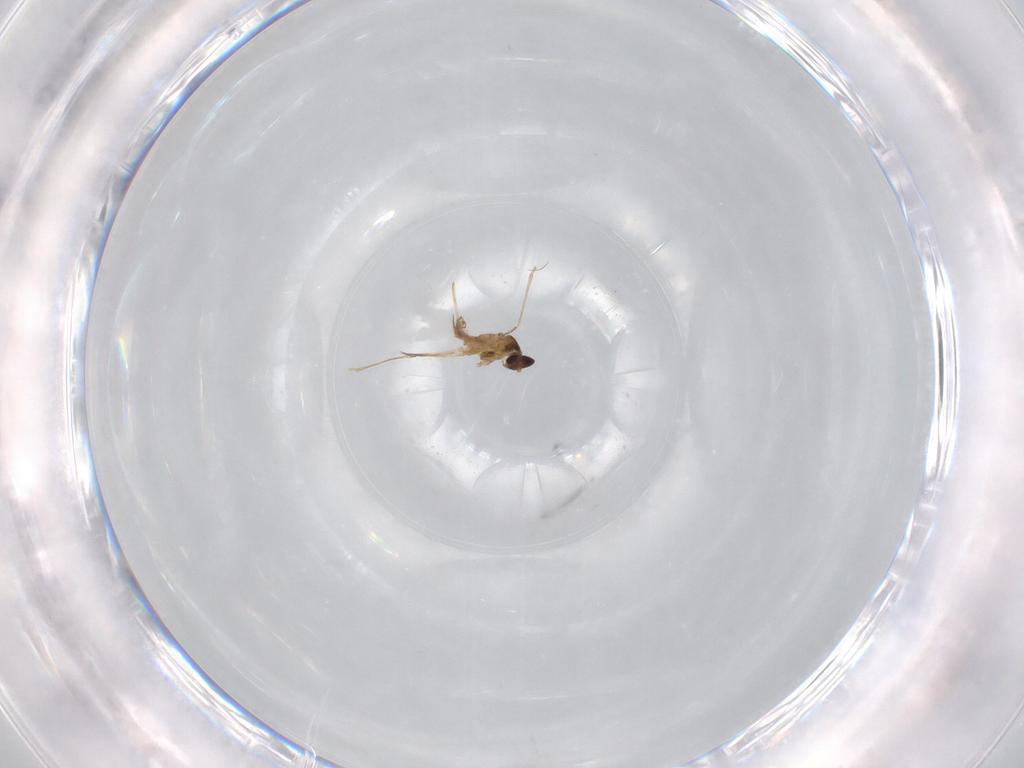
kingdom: Animalia
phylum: Arthropoda
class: Insecta
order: Diptera
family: Cecidomyiidae
